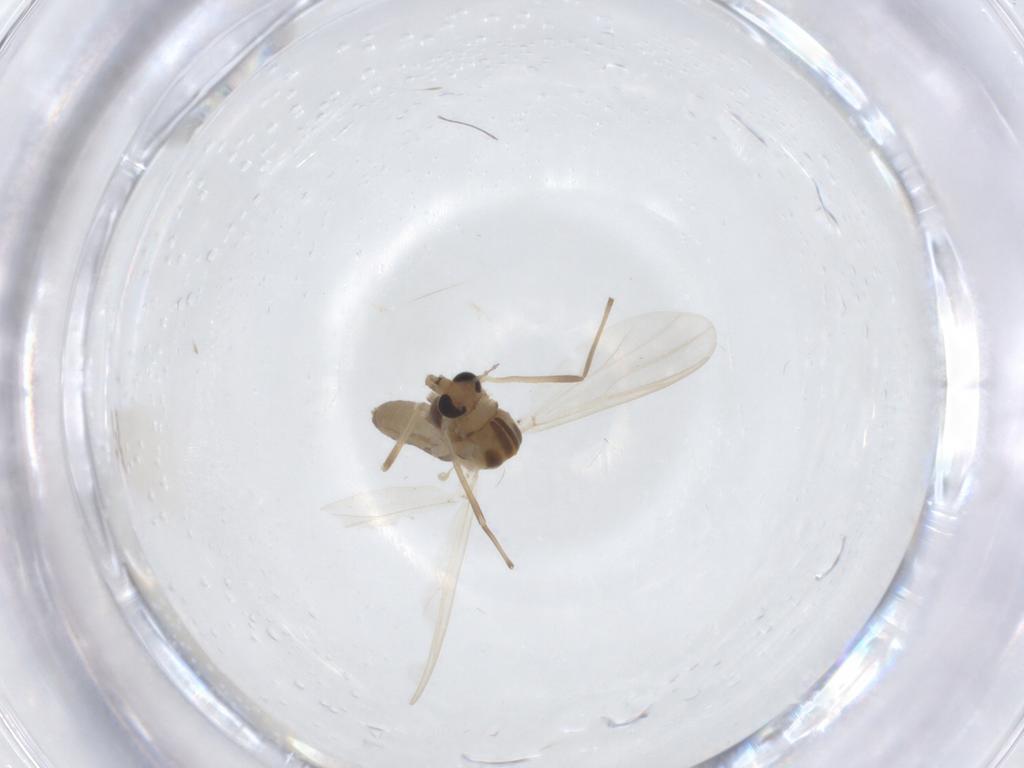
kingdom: Animalia
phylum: Arthropoda
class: Insecta
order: Diptera
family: Chironomidae
